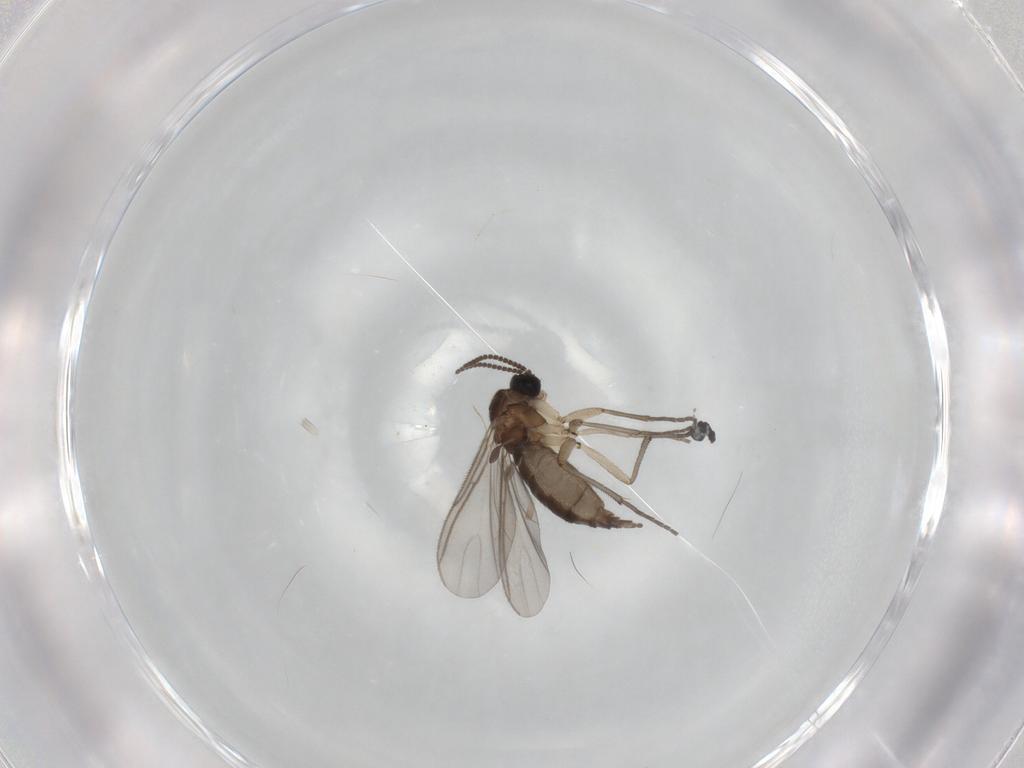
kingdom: Animalia
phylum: Arthropoda
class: Insecta
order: Diptera
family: Sciaridae
